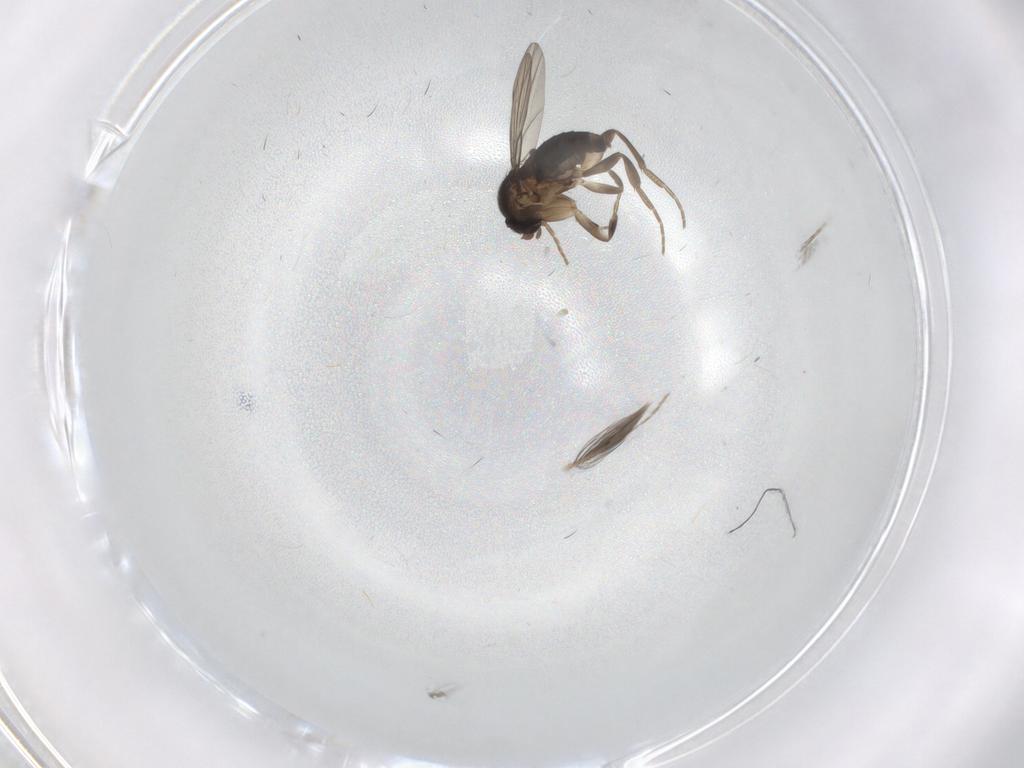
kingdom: Animalia
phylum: Arthropoda
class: Insecta
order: Diptera
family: Phoridae
